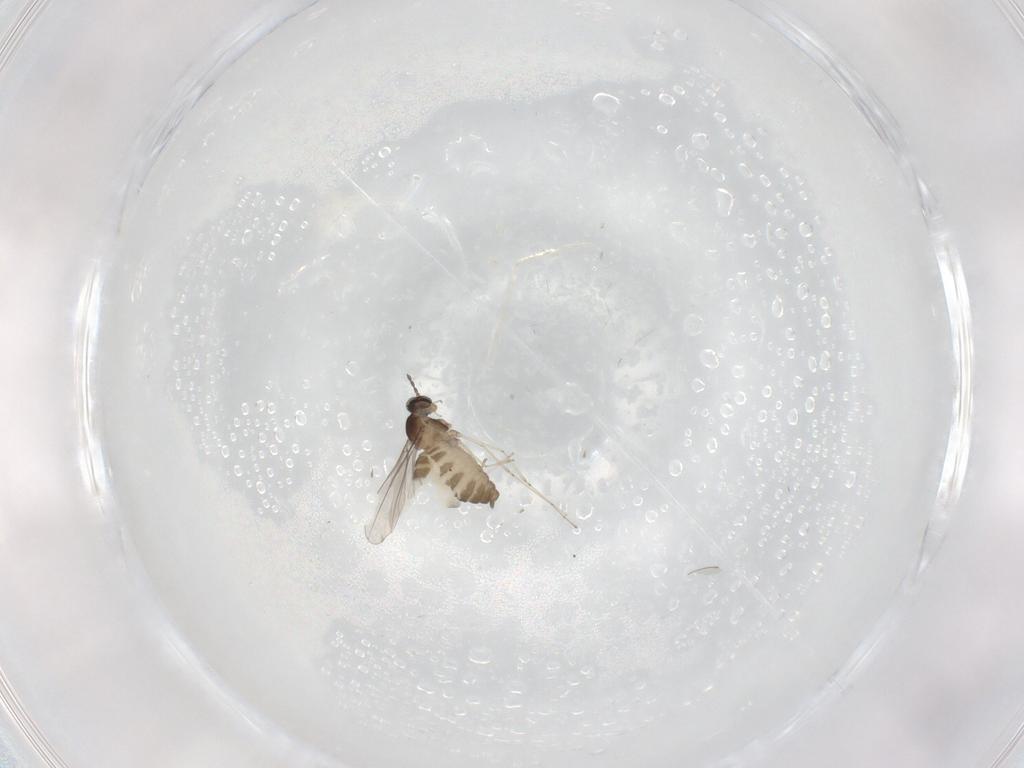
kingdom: Animalia
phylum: Arthropoda
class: Insecta
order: Diptera
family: Cecidomyiidae
